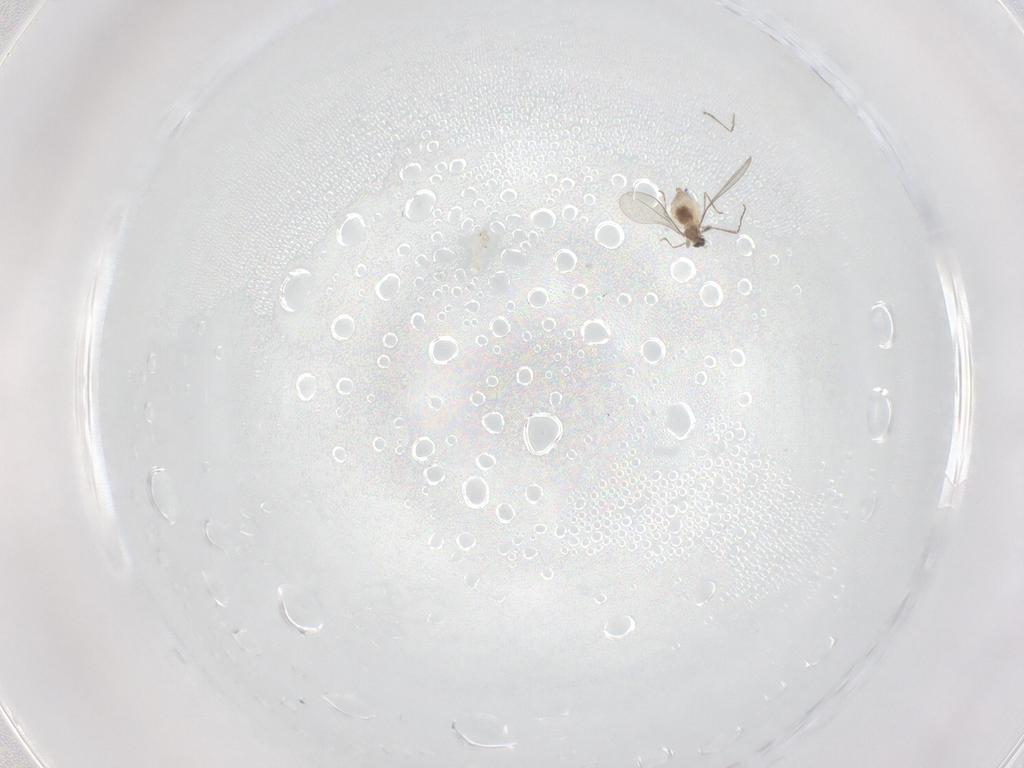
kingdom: Animalia
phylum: Arthropoda
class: Insecta
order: Diptera
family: Cecidomyiidae
